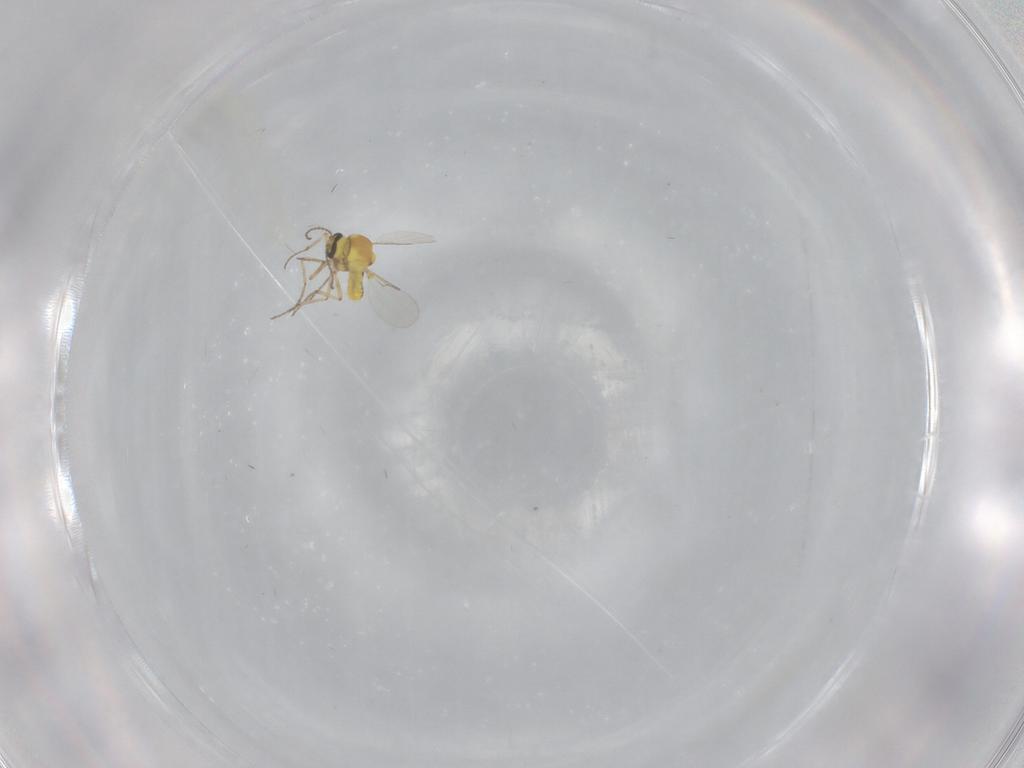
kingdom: Animalia
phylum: Arthropoda
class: Insecta
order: Diptera
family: Ceratopogonidae
